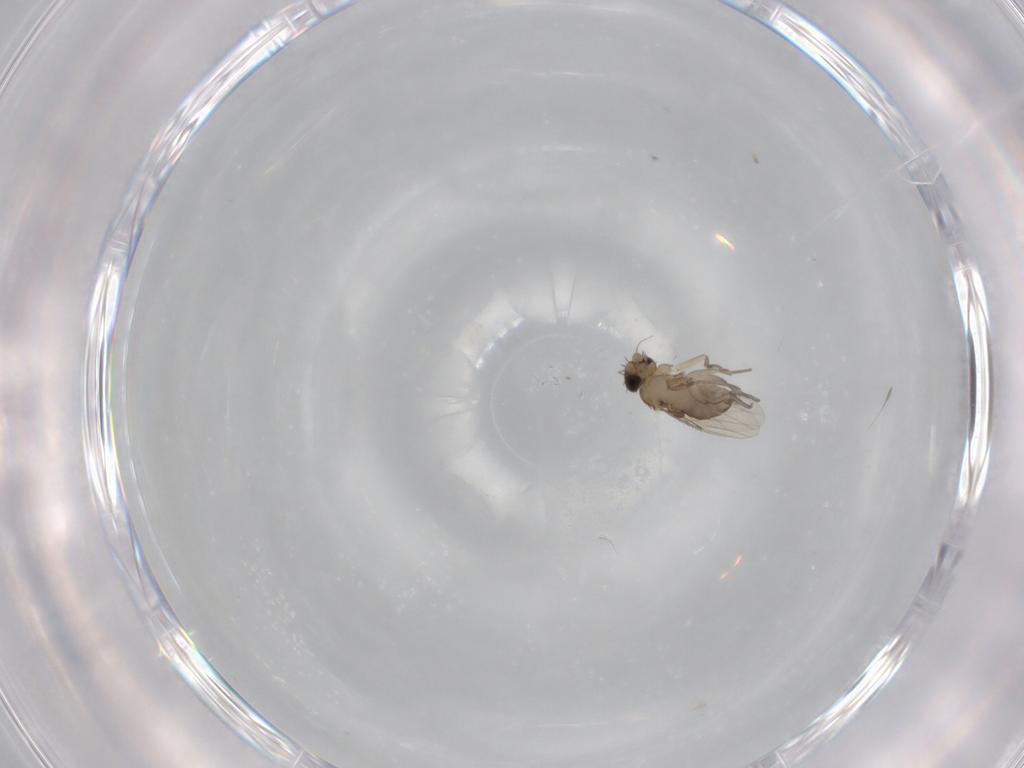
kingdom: Animalia
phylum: Arthropoda
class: Insecta
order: Diptera
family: Phoridae
